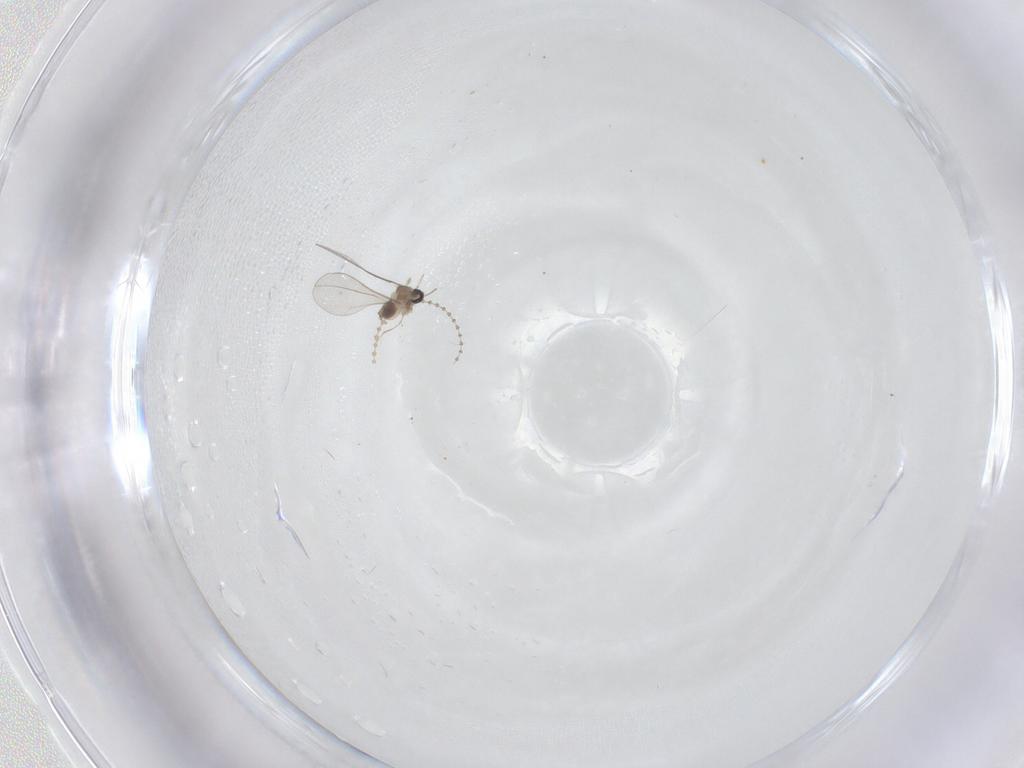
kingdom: Animalia
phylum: Arthropoda
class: Insecta
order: Diptera
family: Cecidomyiidae
